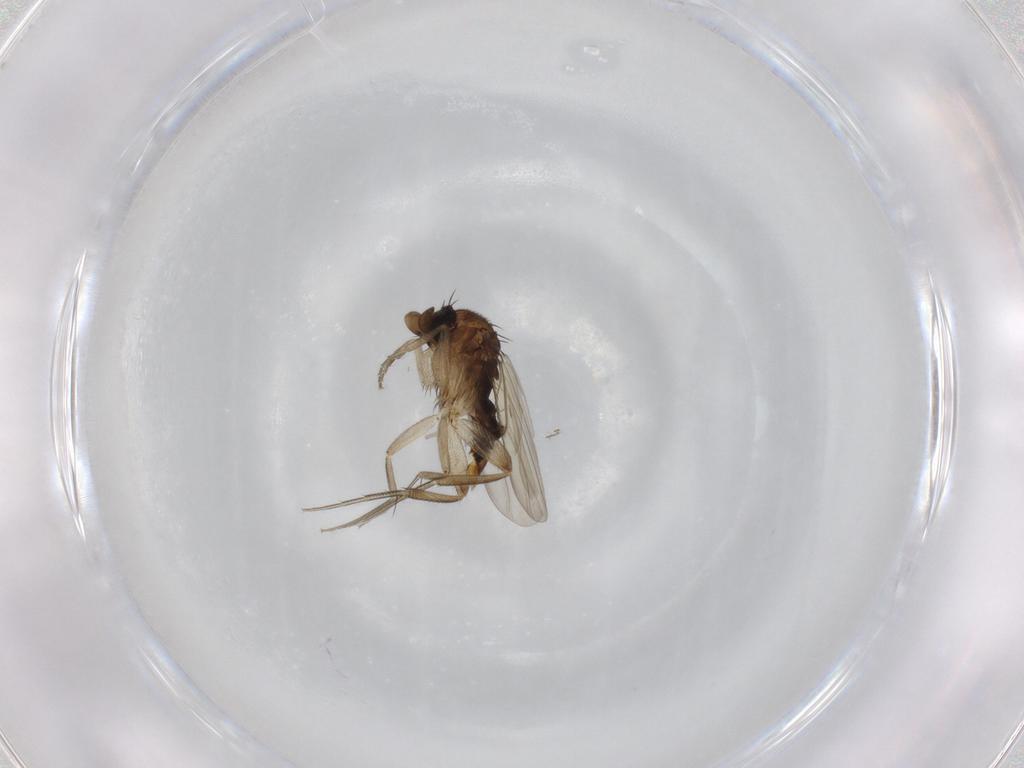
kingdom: Animalia
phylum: Arthropoda
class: Insecta
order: Diptera
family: Phoridae
